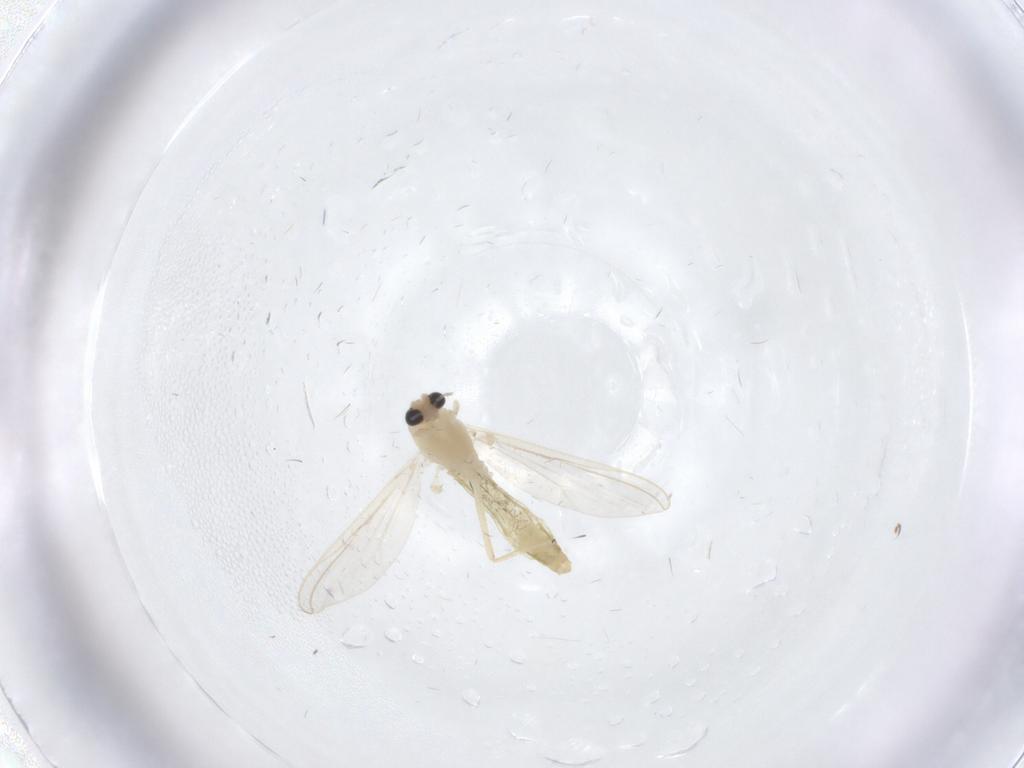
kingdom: Animalia
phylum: Arthropoda
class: Insecta
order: Diptera
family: Chironomidae
